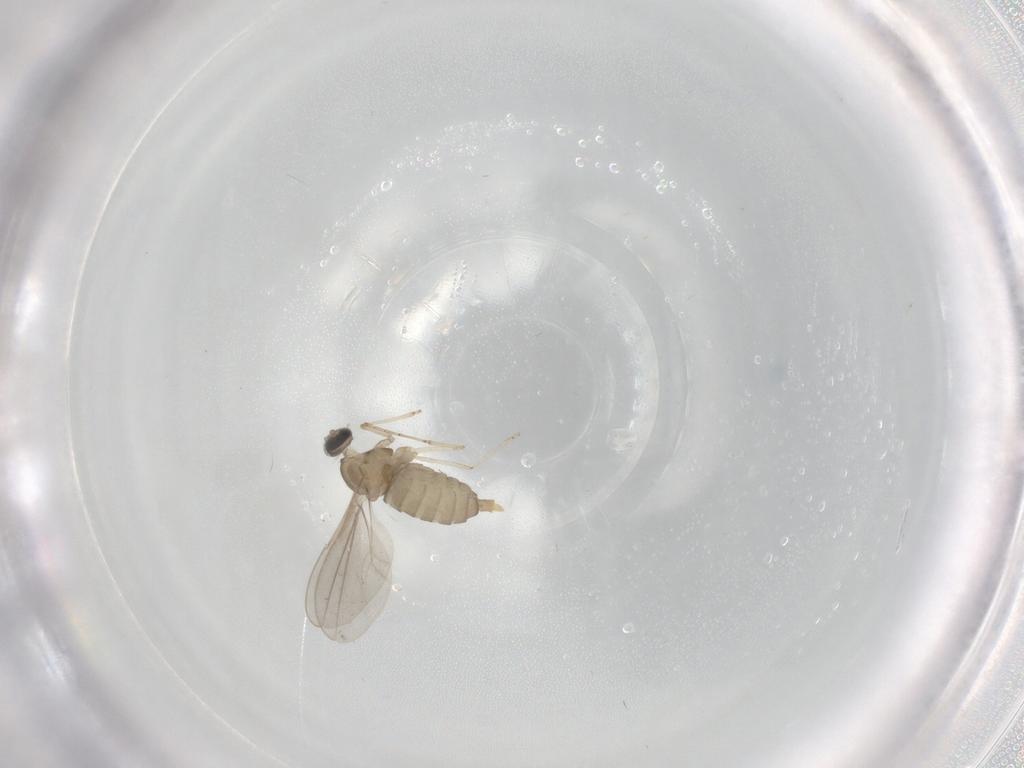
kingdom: Animalia
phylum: Arthropoda
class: Insecta
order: Diptera
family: Cecidomyiidae
